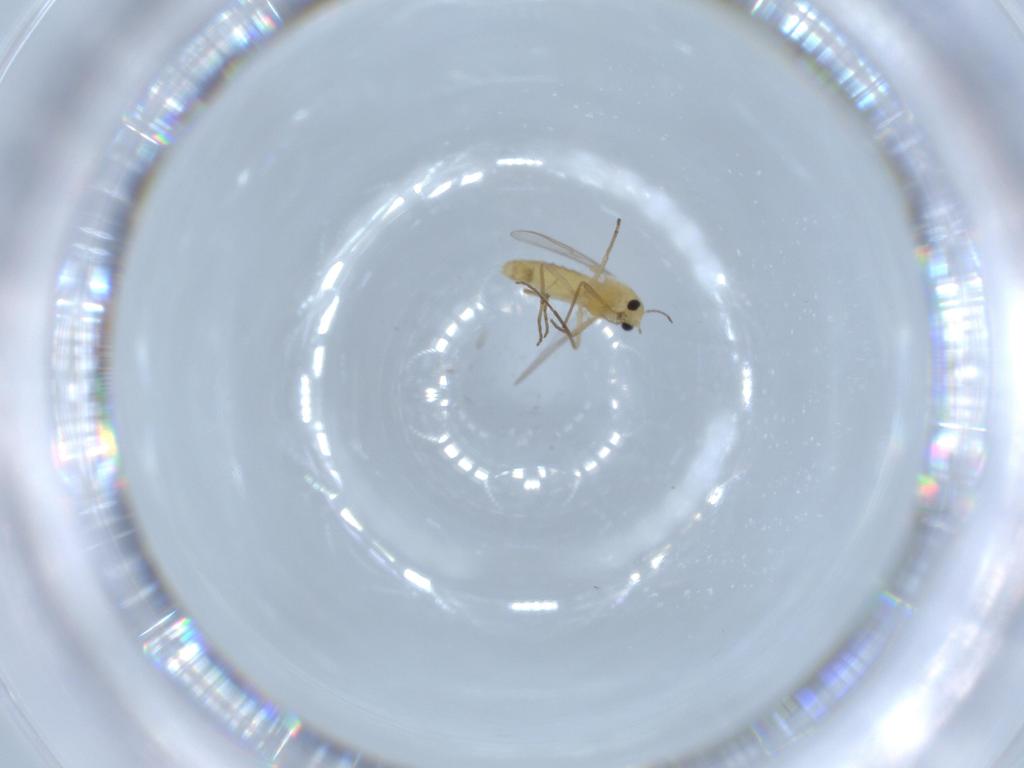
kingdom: Animalia
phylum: Arthropoda
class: Insecta
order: Diptera
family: Chironomidae
